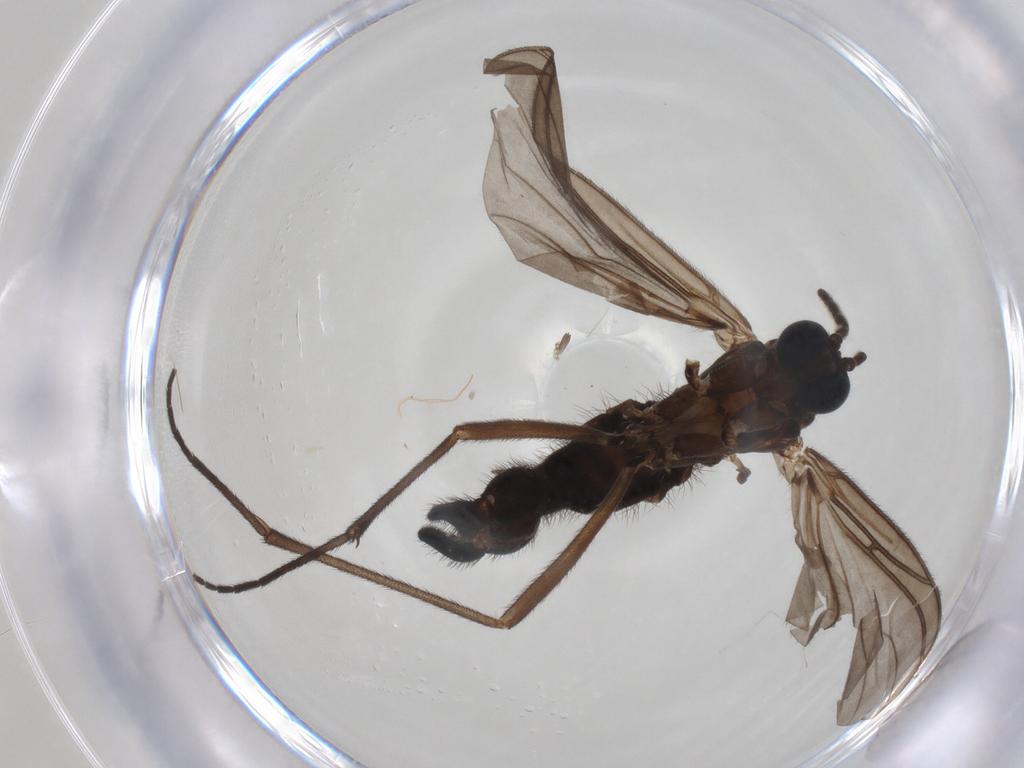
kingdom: Animalia
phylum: Arthropoda
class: Insecta
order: Diptera
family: Sciaridae
